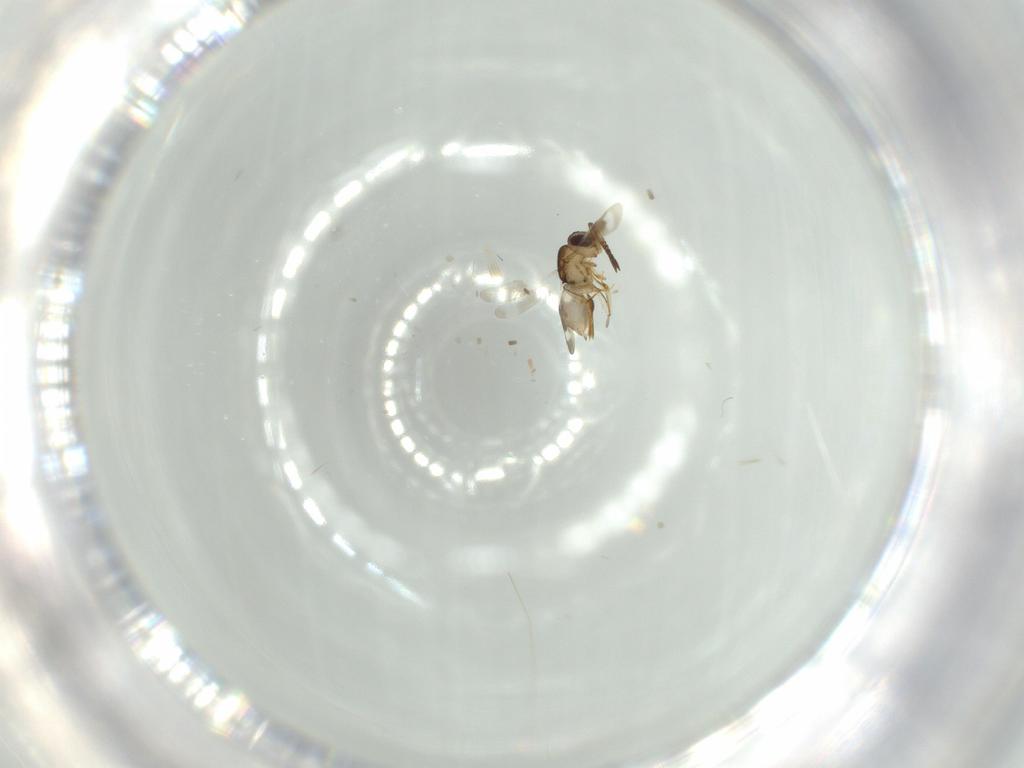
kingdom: Animalia
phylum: Arthropoda
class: Insecta
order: Hymenoptera
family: Ceraphronidae
